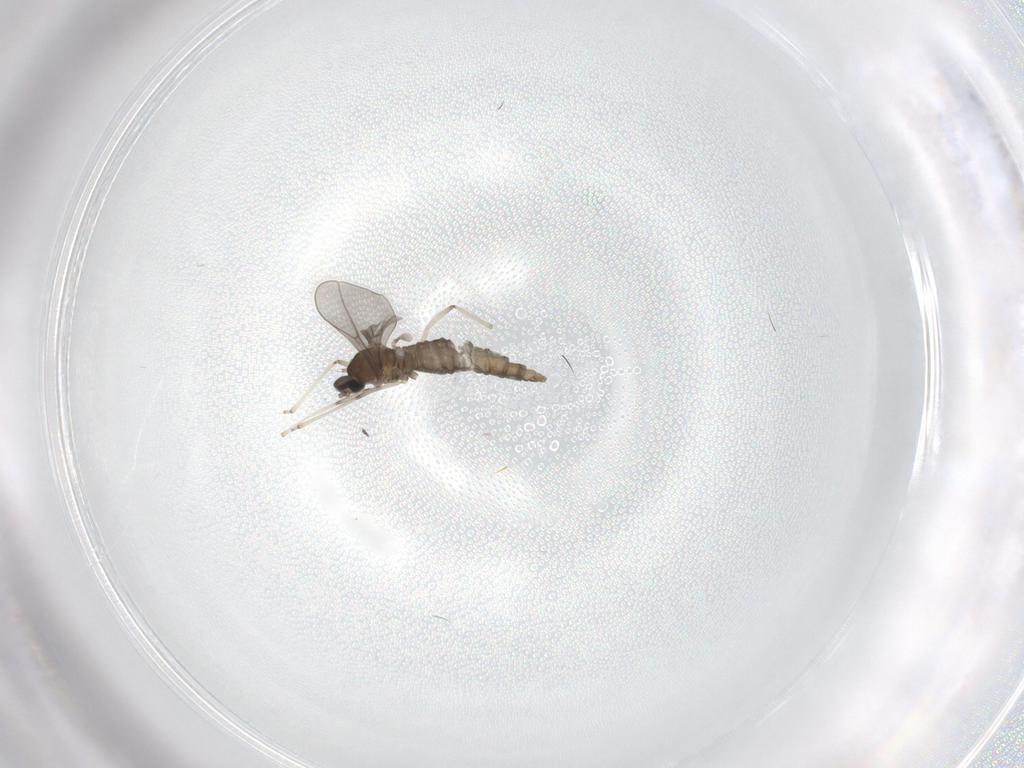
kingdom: Animalia
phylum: Arthropoda
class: Insecta
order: Diptera
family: Cecidomyiidae
